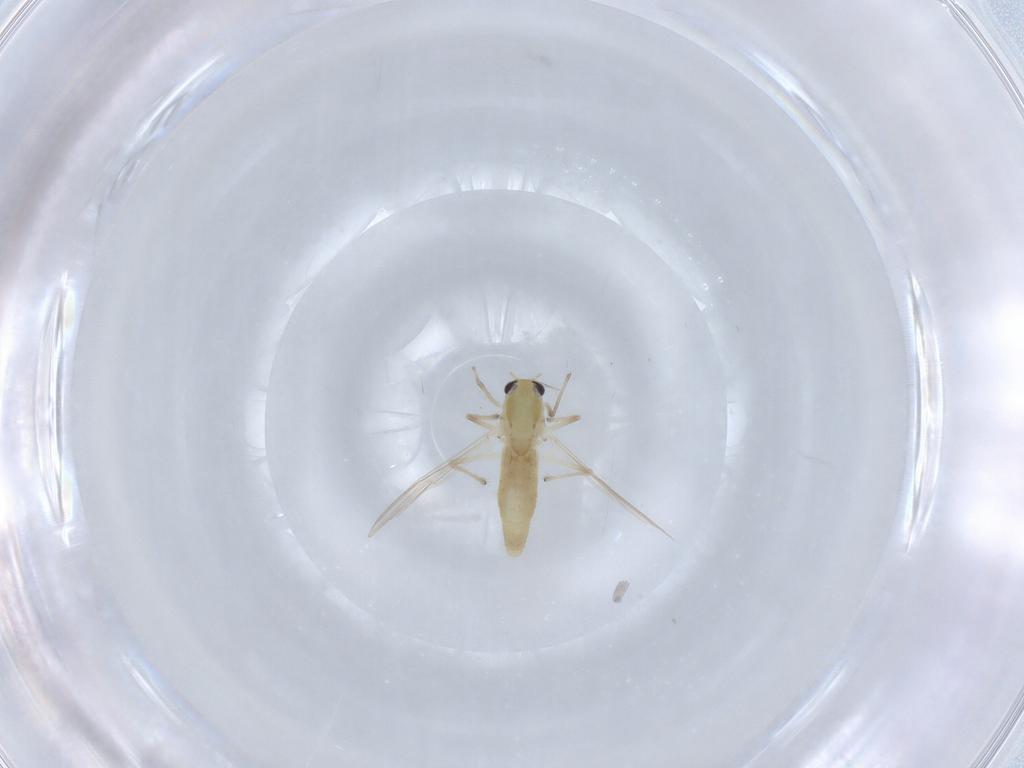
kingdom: Animalia
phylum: Arthropoda
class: Insecta
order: Diptera
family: Chironomidae
